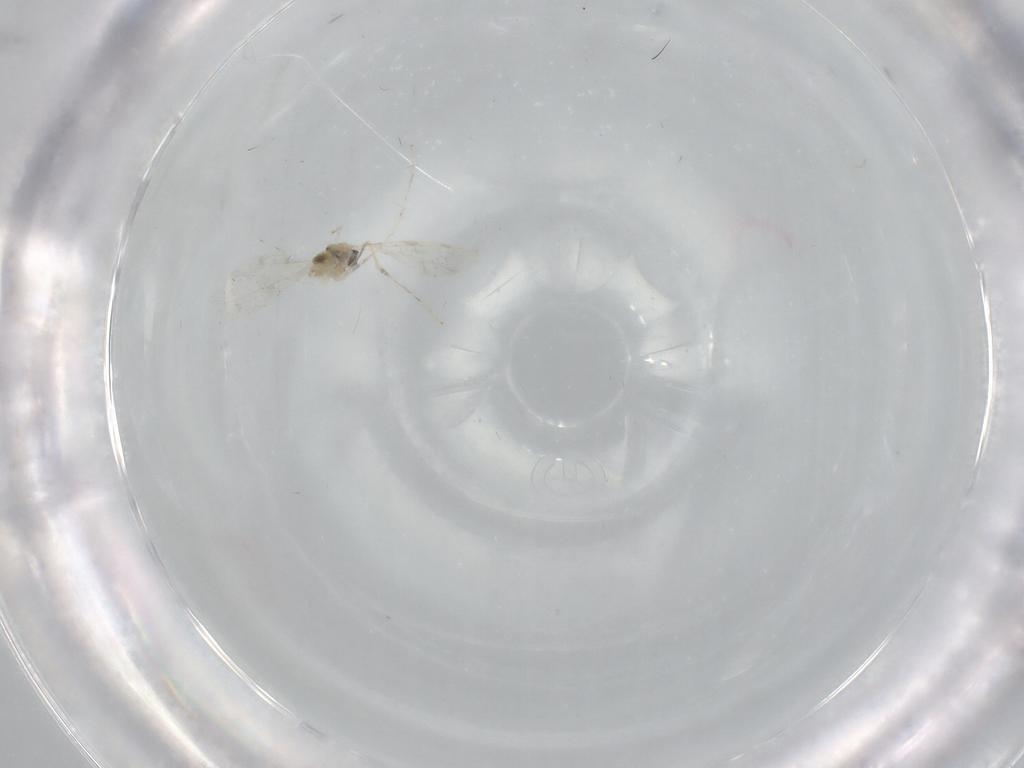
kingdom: Animalia
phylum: Arthropoda
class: Insecta
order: Diptera
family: Cecidomyiidae
